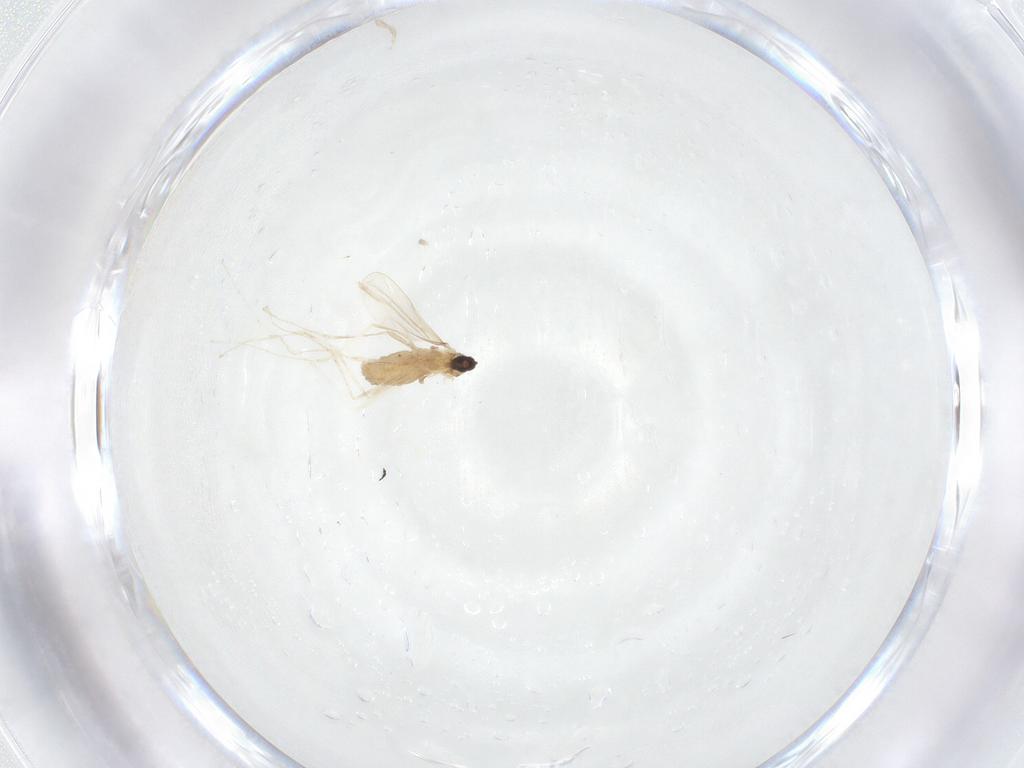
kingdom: Animalia
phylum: Arthropoda
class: Insecta
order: Diptera
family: Cecidomyiidae
